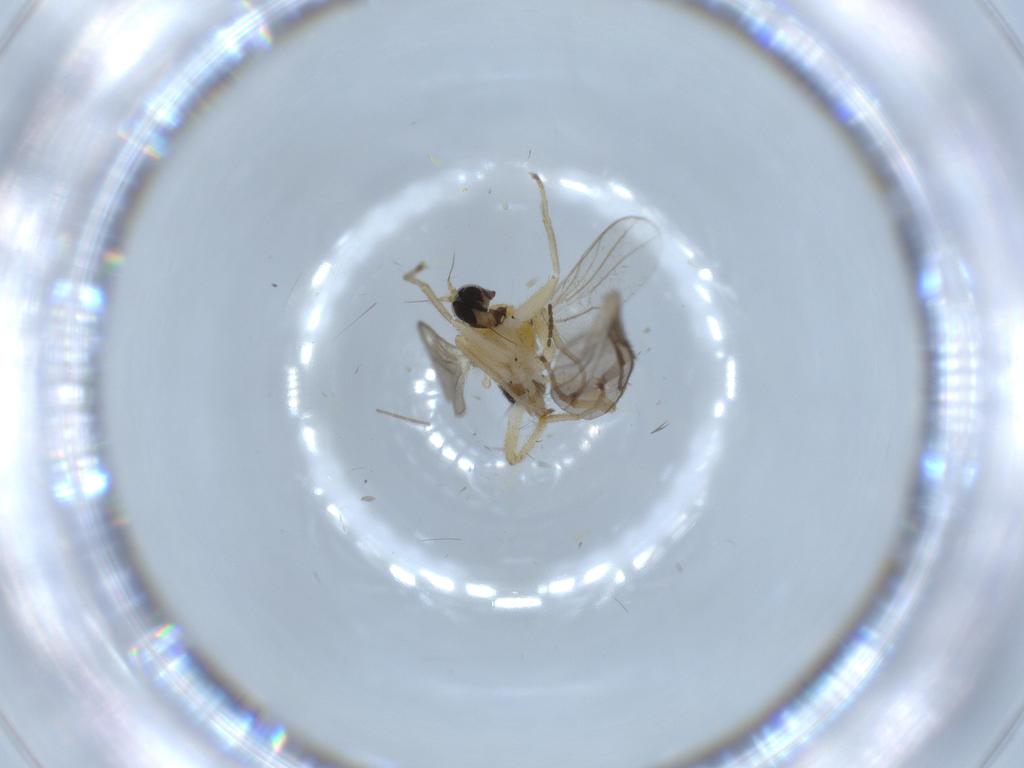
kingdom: Animalia
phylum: Arthropoda
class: Insecta
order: Diptera
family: Hybotidae
